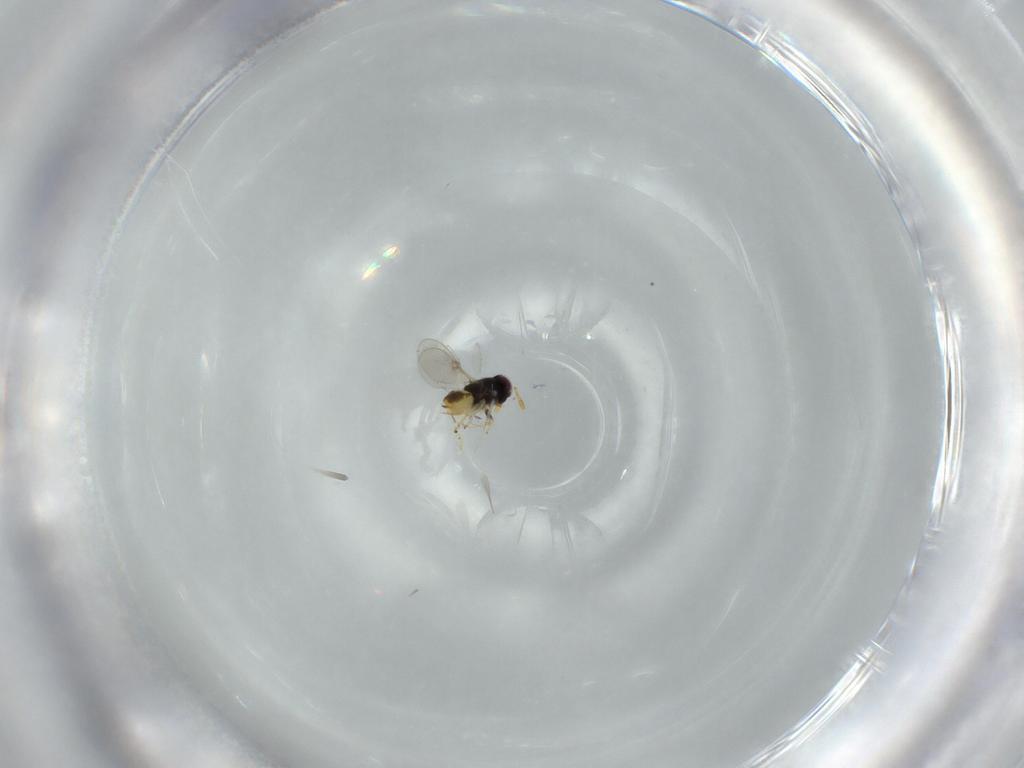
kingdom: Animalia
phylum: Arthropoda
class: Insecta
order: Hymenoptera
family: Encyrtidae
